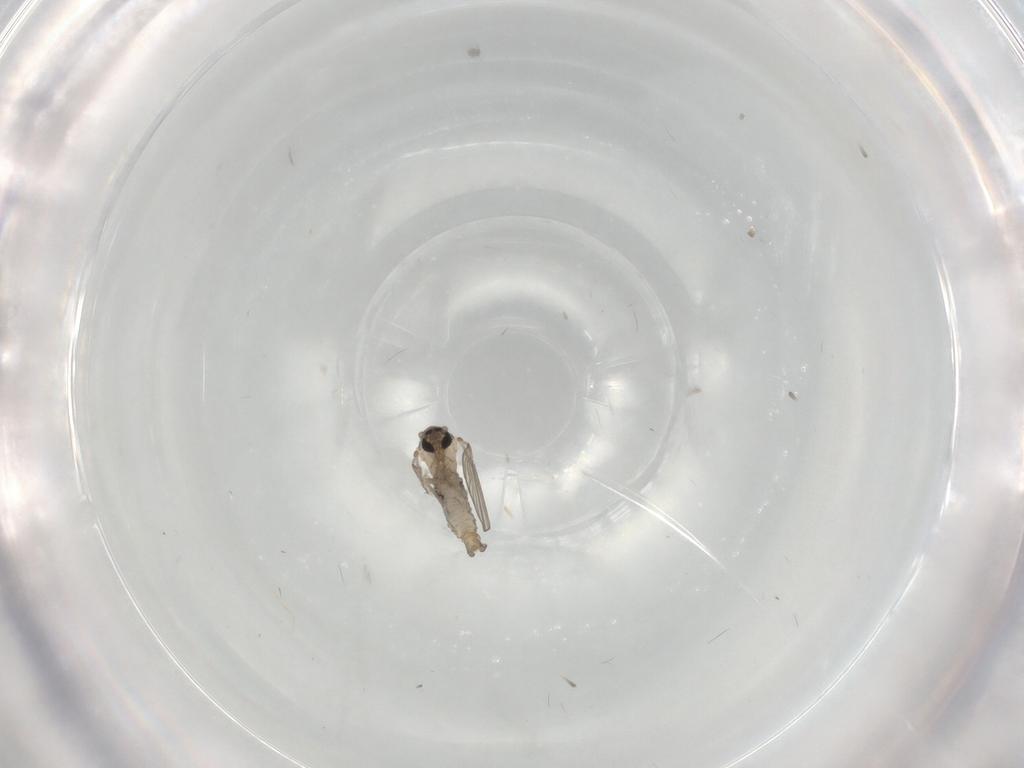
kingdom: Animalia
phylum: Arthropoda
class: Insecta
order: Diptera
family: Psychodidae
